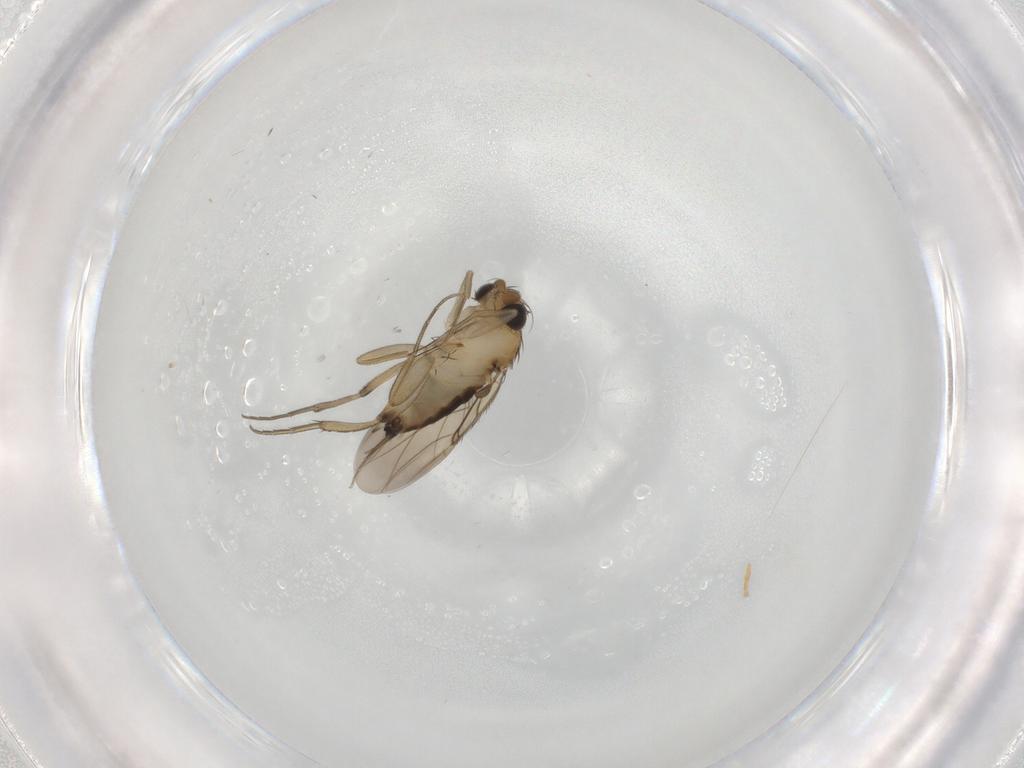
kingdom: Animalia
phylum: Arthropoda
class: Insecta
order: Diptera
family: Phoridae
